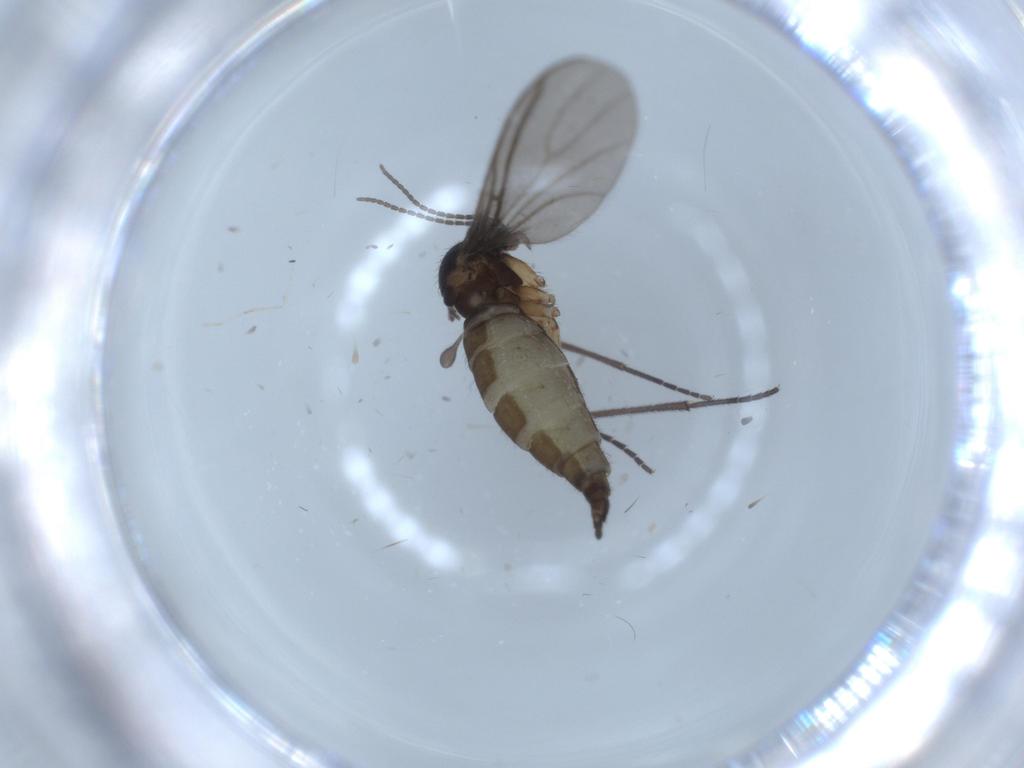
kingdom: Animalia
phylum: Arthropoda
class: Insecta
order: Diptera
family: Sciaridae
